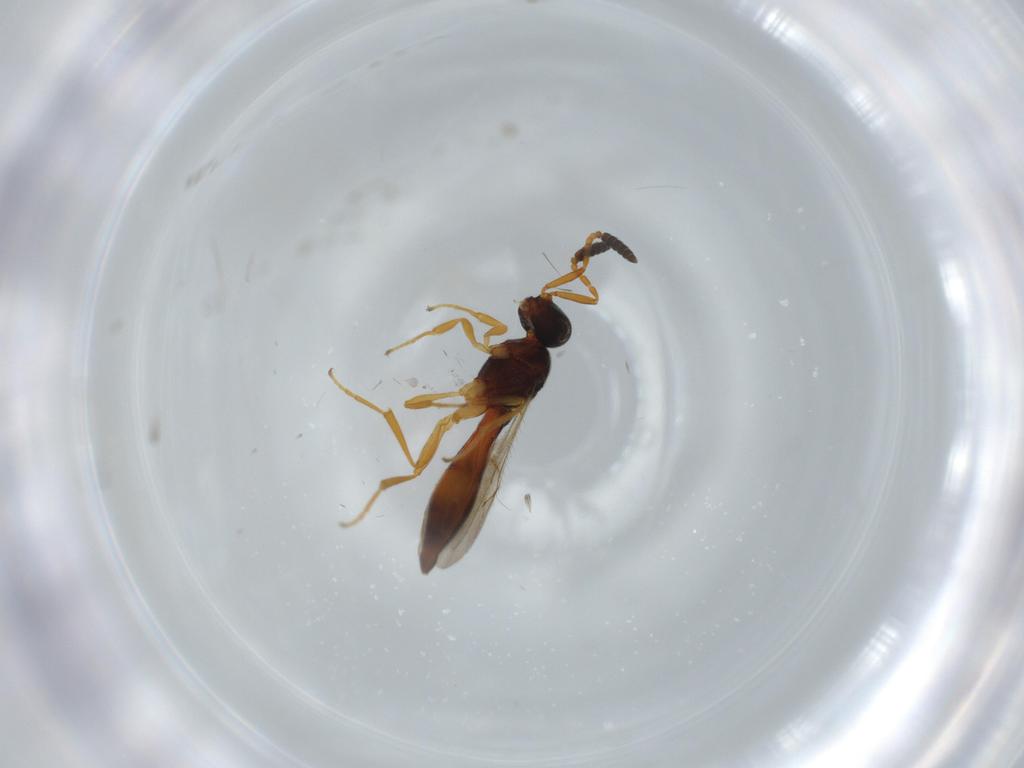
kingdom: Animalia
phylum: Arthropoda
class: Insecta
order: Hymenoptera
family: Scelionidae
